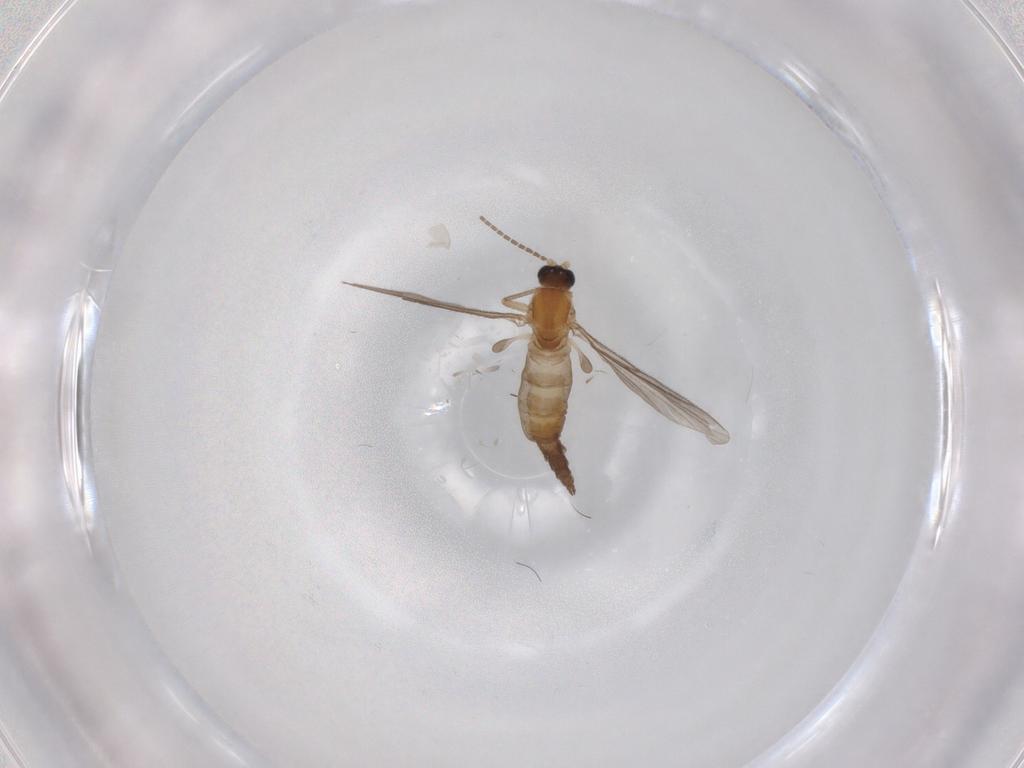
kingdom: Animalia
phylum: Arthropoda
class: Insecta
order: Diptera
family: Sciaridae
